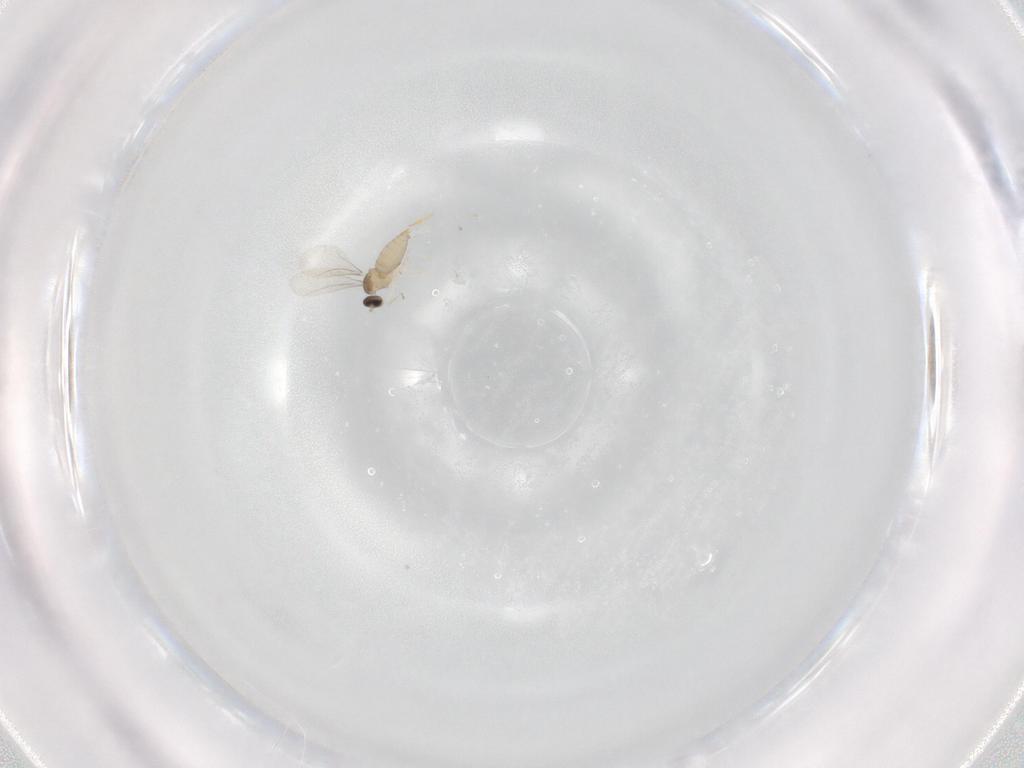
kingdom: Animalia
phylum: Arthropoda
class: Insecta
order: Diptera
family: Cecidomyiidae
